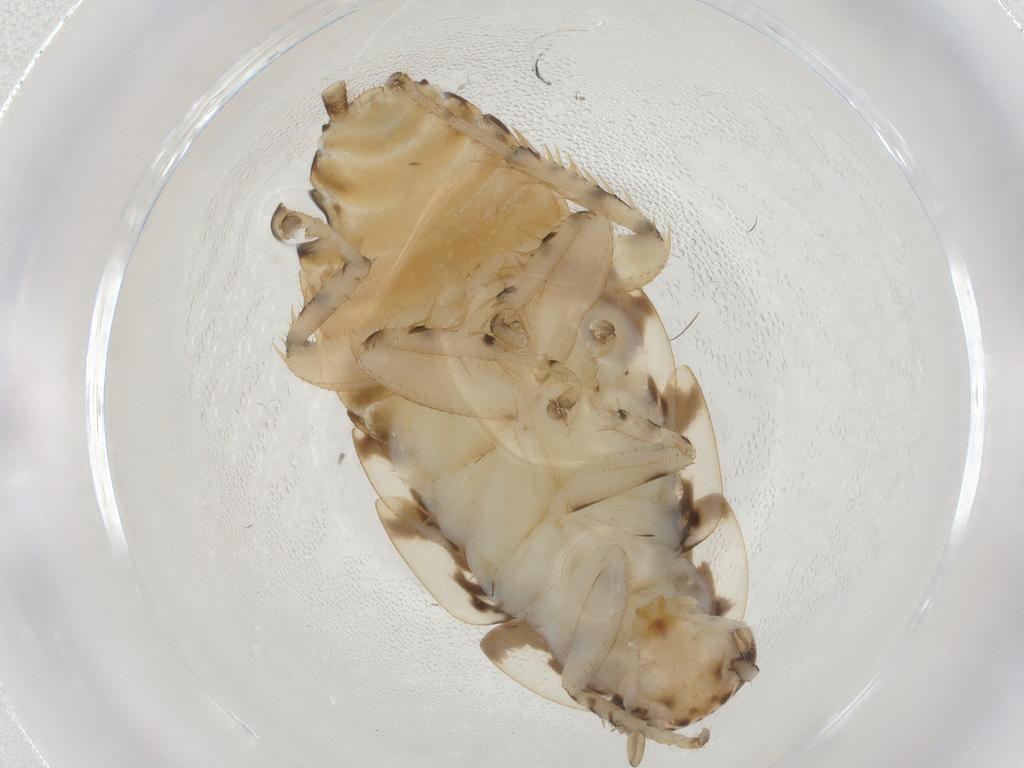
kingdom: Animalia
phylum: Arthropoda
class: Insecta
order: Blattodea
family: Ectobiidae
